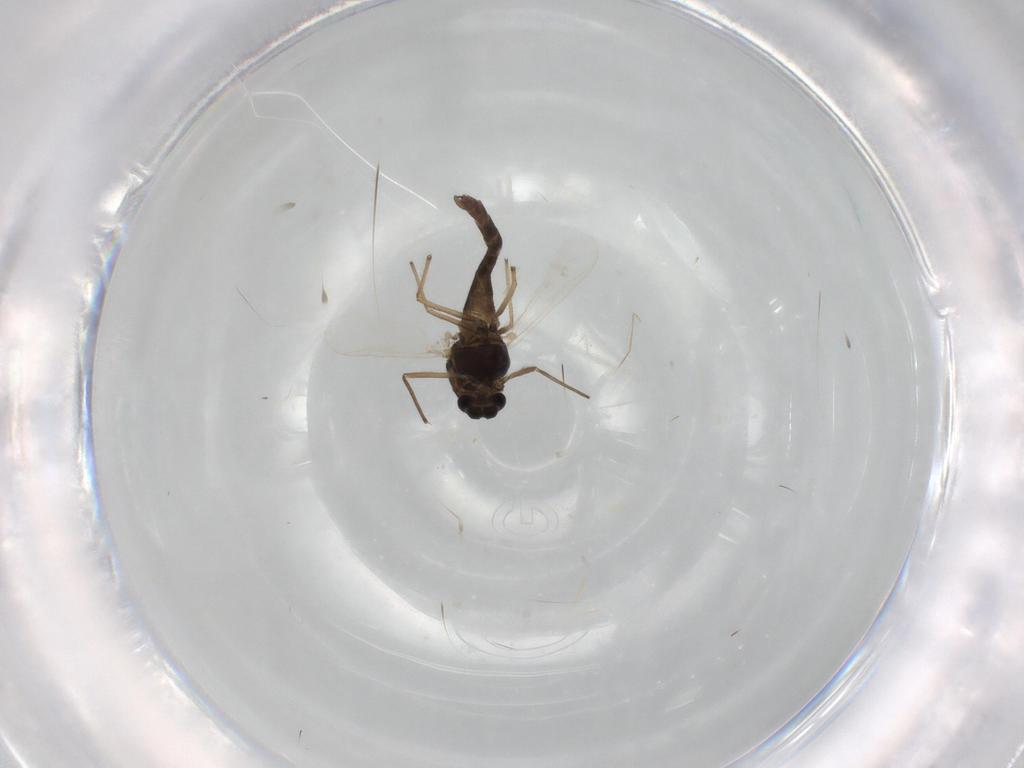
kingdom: Animalia
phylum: Arthropoda
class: Insecta
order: Diptera
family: Chironomidae
